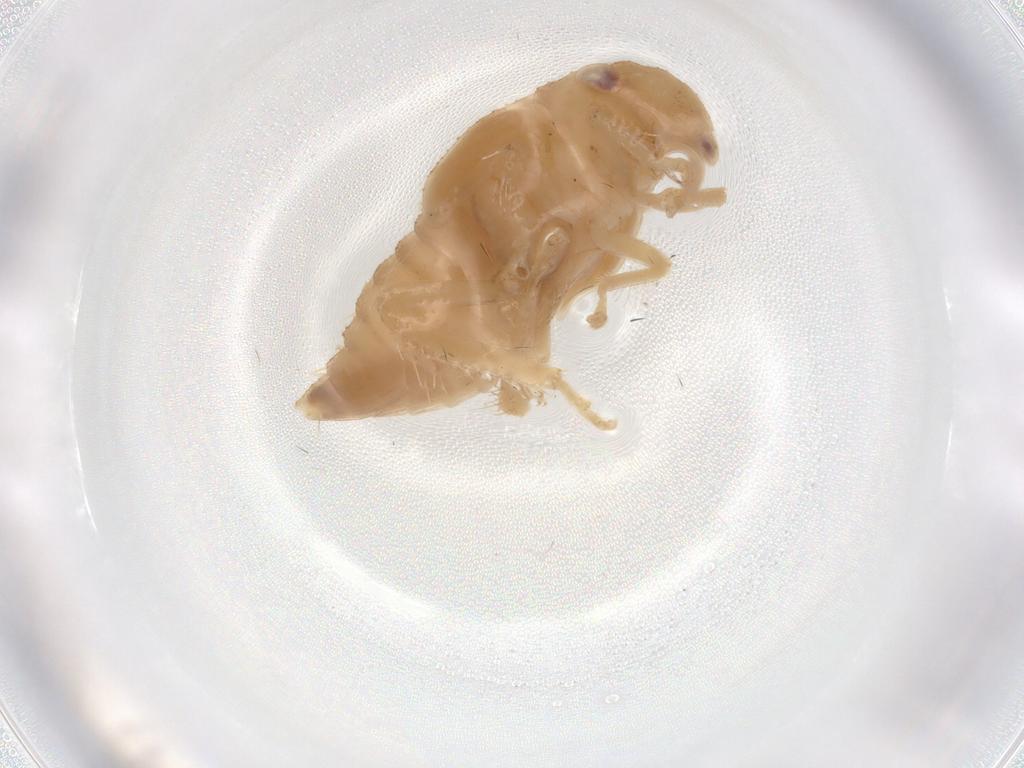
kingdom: Animalia
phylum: Arthropoda
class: Insecta
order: Hemiptera
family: Cicadellidae
